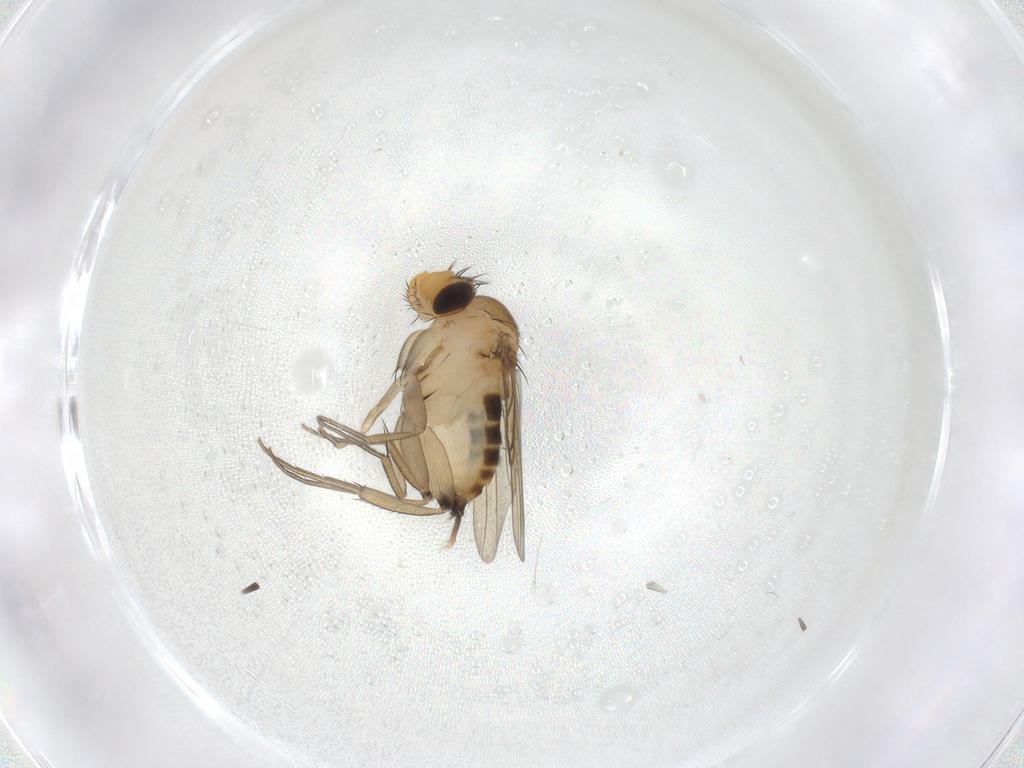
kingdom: Animalia
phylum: Arthropoda
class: Insecta
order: Diptera
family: Phoridae
